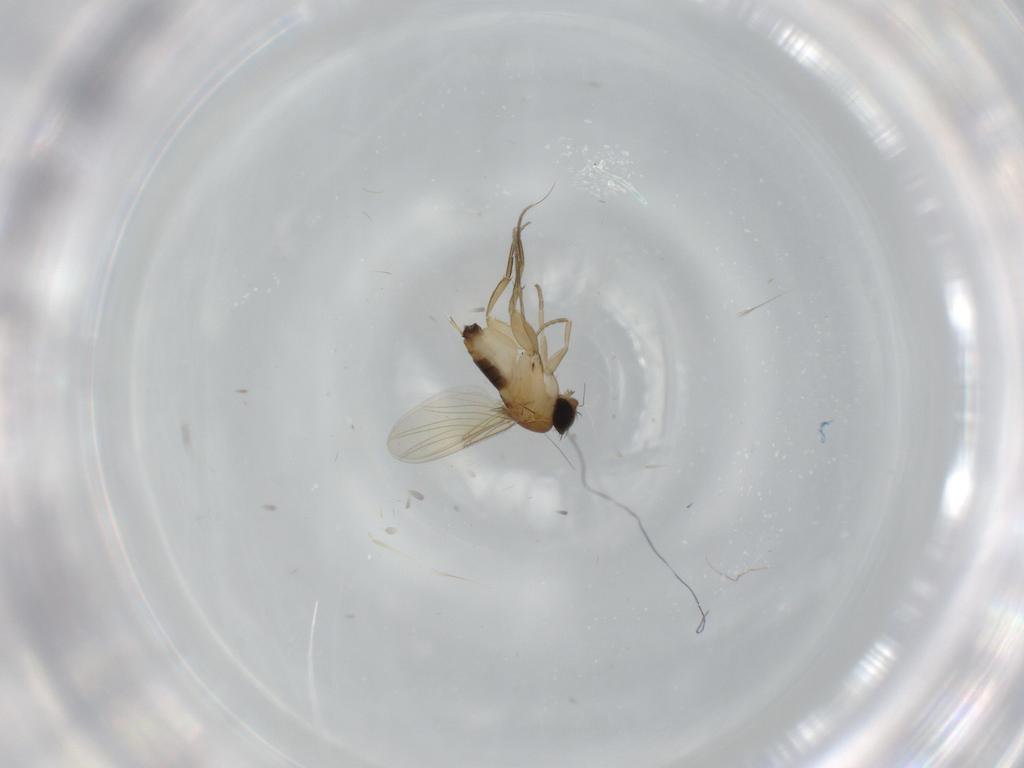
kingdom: Animalia
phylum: Arthropoda
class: Insecta
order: Diptera
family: Phoridae
